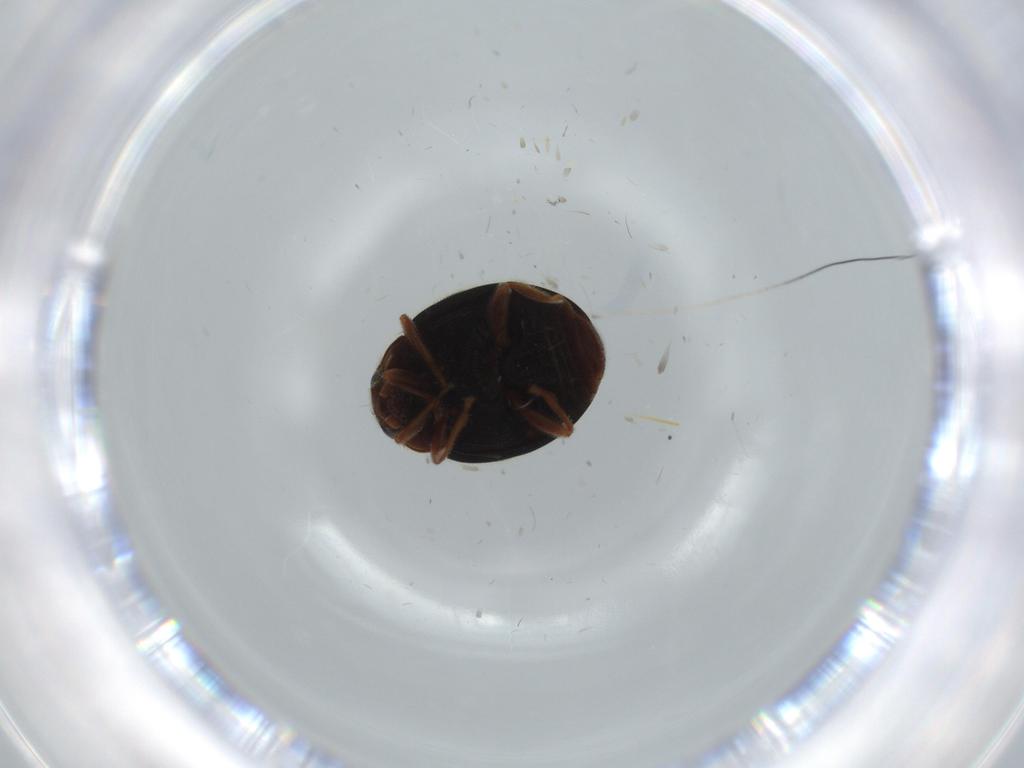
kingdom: Animalia
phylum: Arthropoda
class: Insecta
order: Coleoptera
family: Coccinellidae
